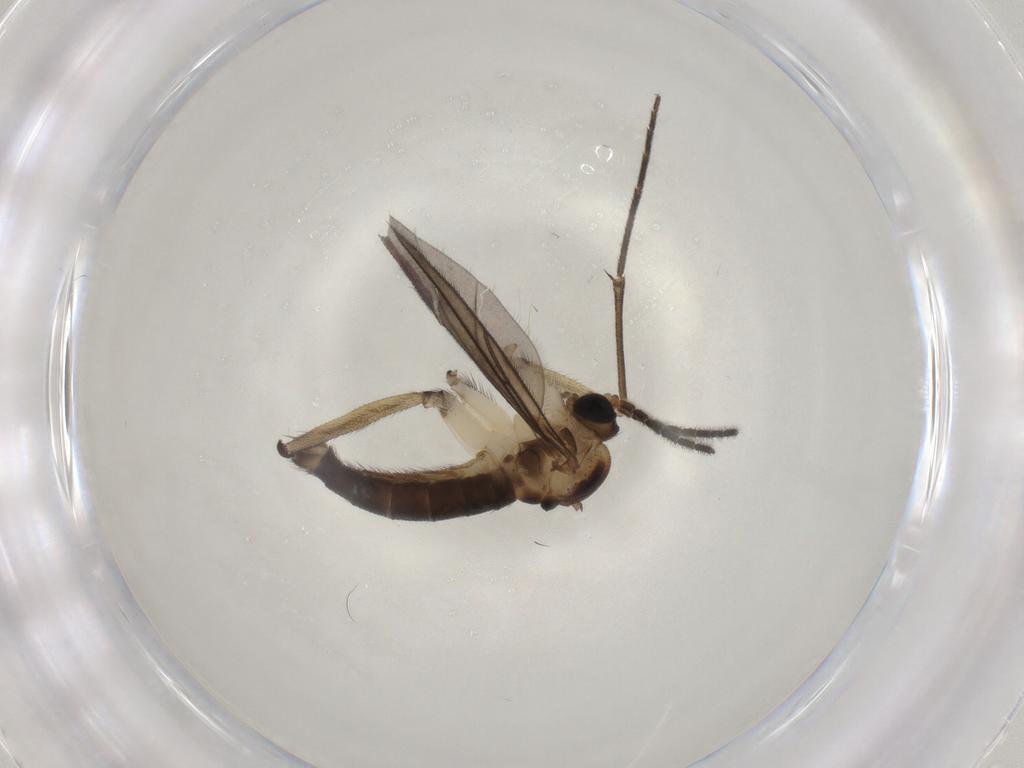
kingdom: Animalia
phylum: Arthropoda
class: Insecta
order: Diptera
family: Sciaridae
